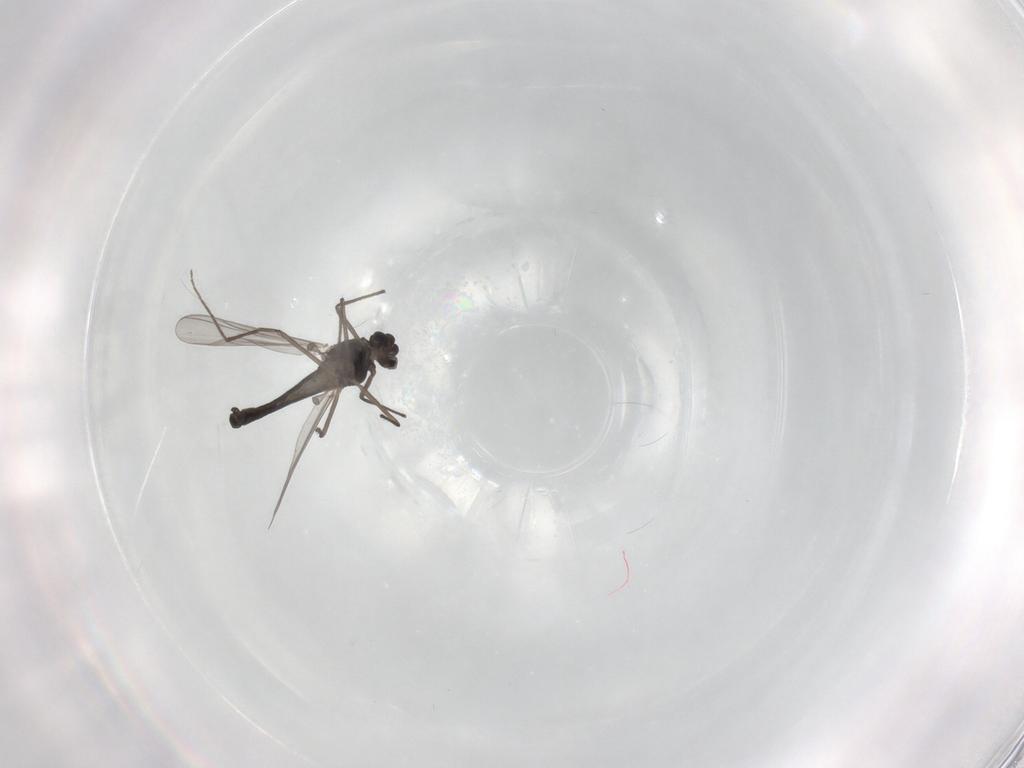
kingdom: Animalia
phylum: Arthropoda
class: Insecta
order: Diptera
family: Chironomidae
